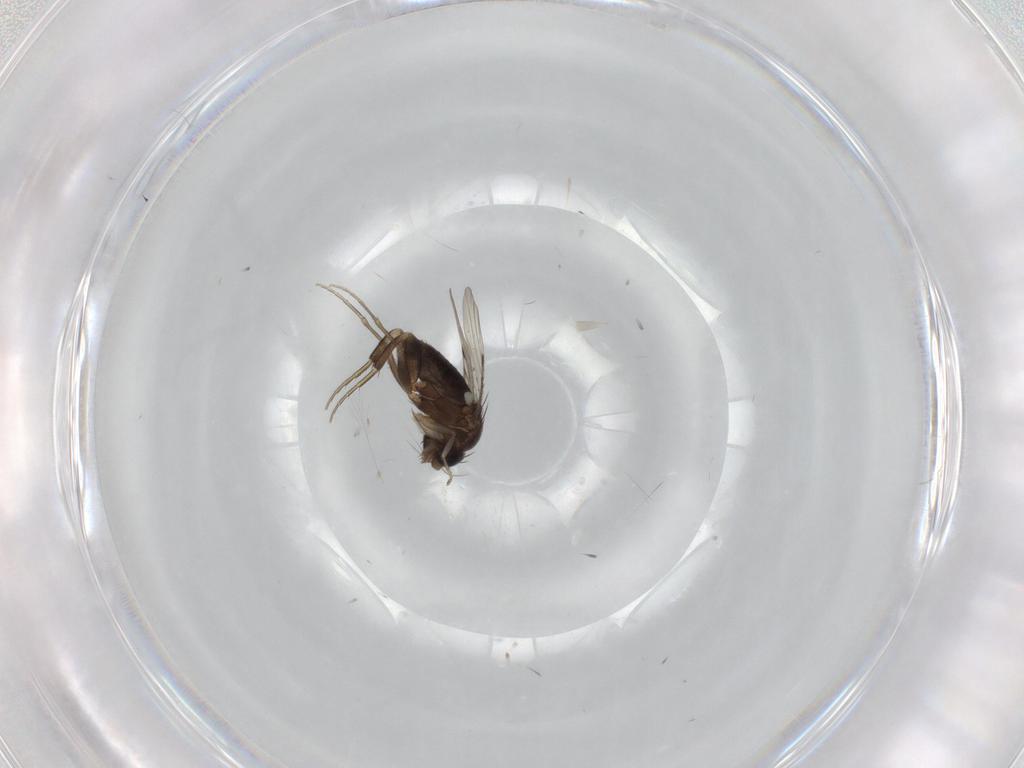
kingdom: Animalia
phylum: Arthropoda
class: Insecta
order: Diptera
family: Phoridae
